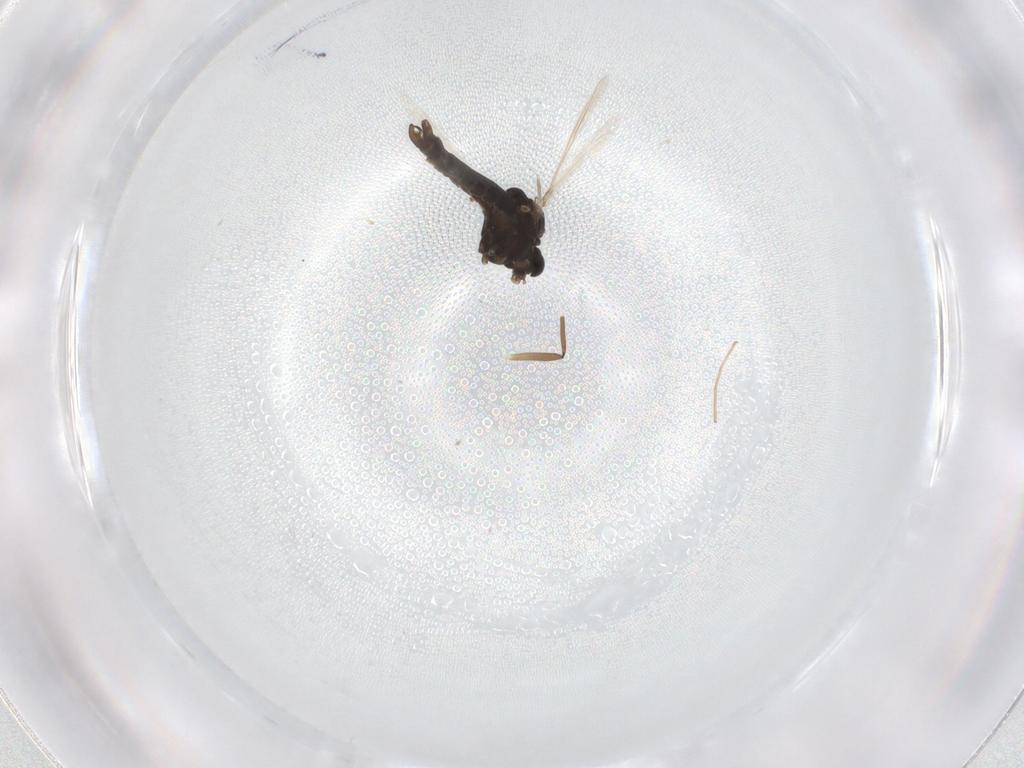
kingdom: Animalia
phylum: Arthropoda
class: Insecta
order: Diptera
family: Chironomidae
